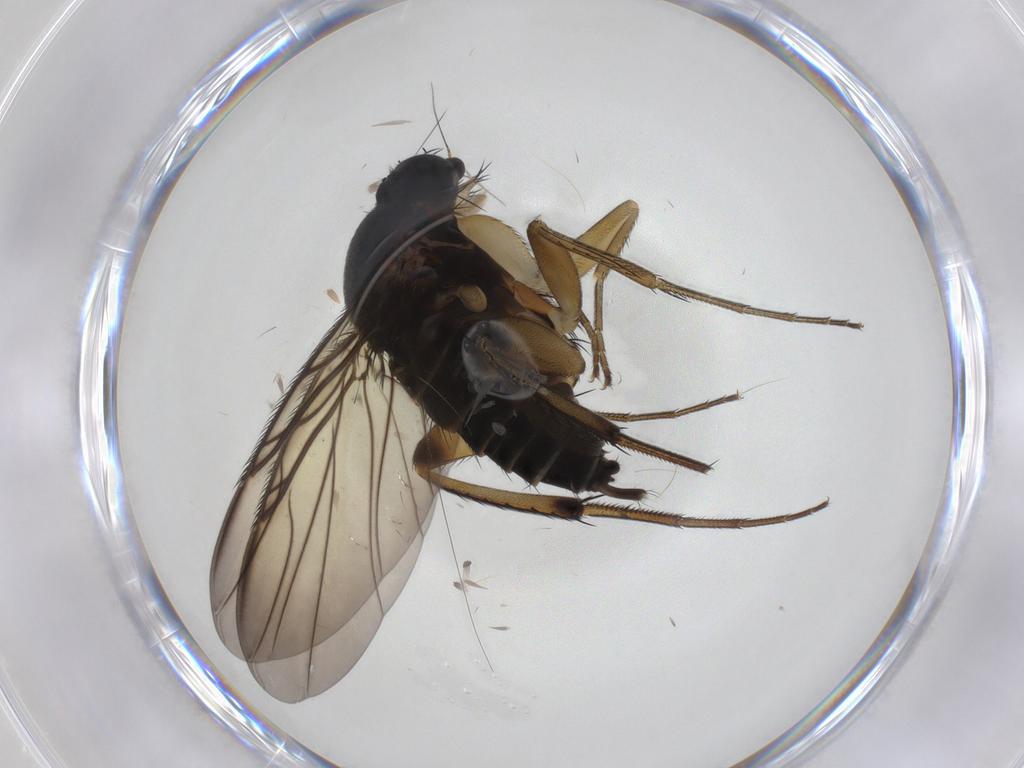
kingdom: Animalia
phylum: Arthropoda
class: Insecta
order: Diptera
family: Phoridae
